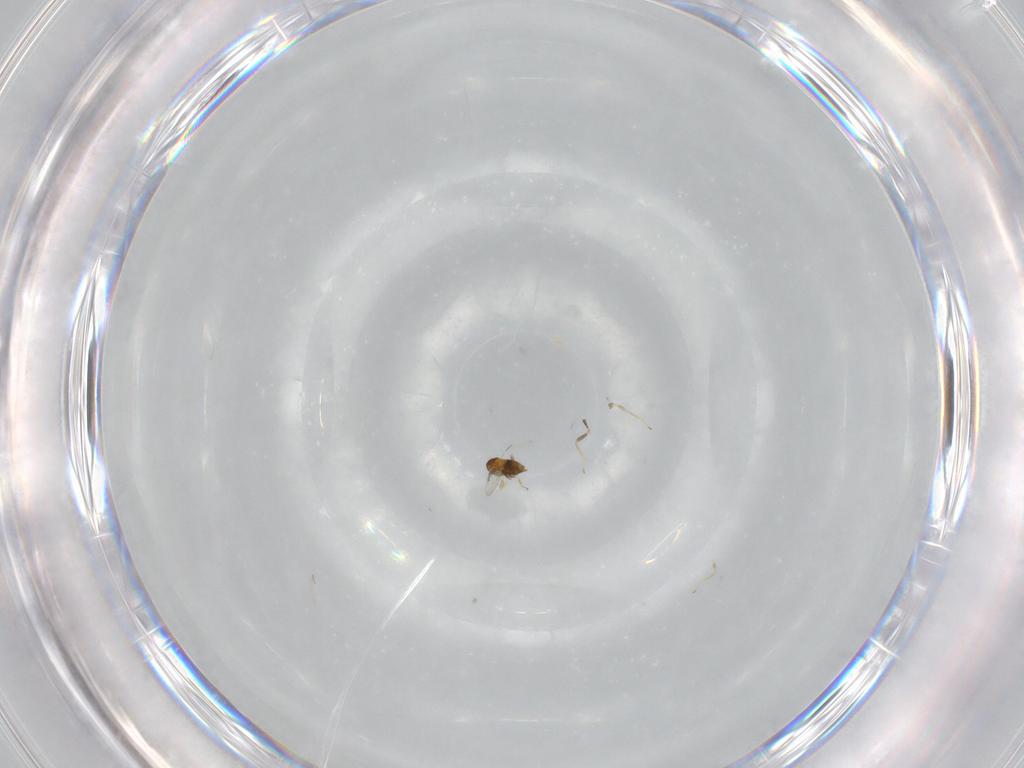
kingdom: Animalia
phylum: Arthropoda
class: Insecta
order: Hymenoptera
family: Trichogrammatidae
